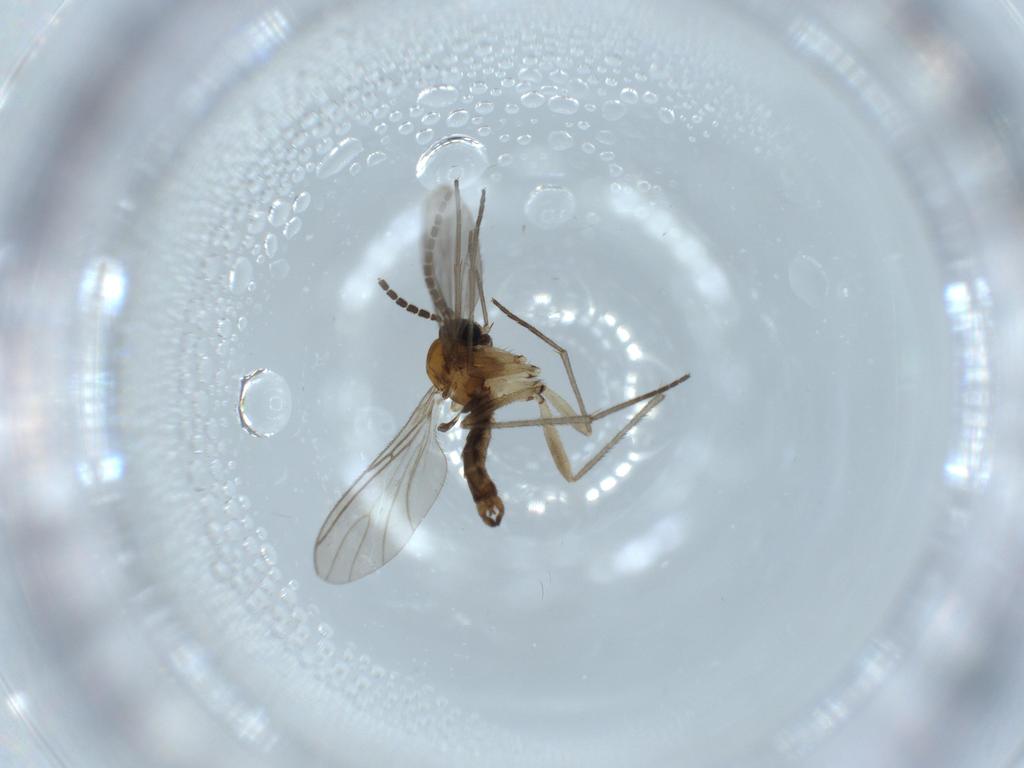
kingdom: Animalia
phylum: Arthropoda
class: Insecta
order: Diptera
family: Sciaridae
